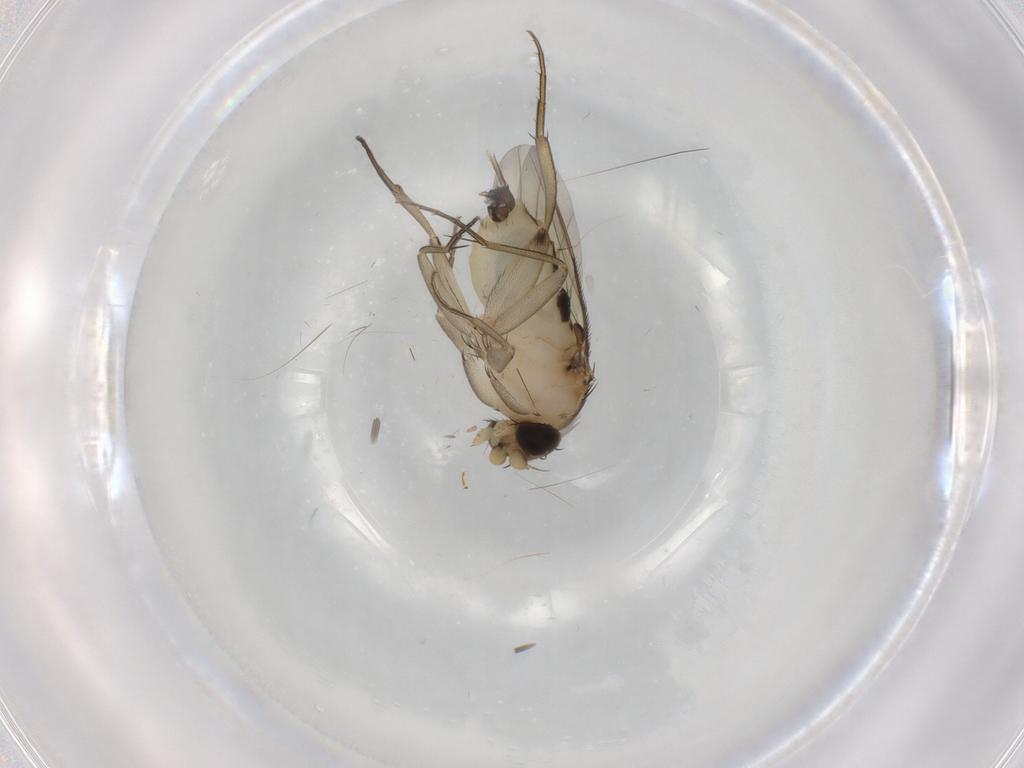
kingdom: Animalia
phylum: Arthropoda
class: Insecta
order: Diptera
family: Phoridae
